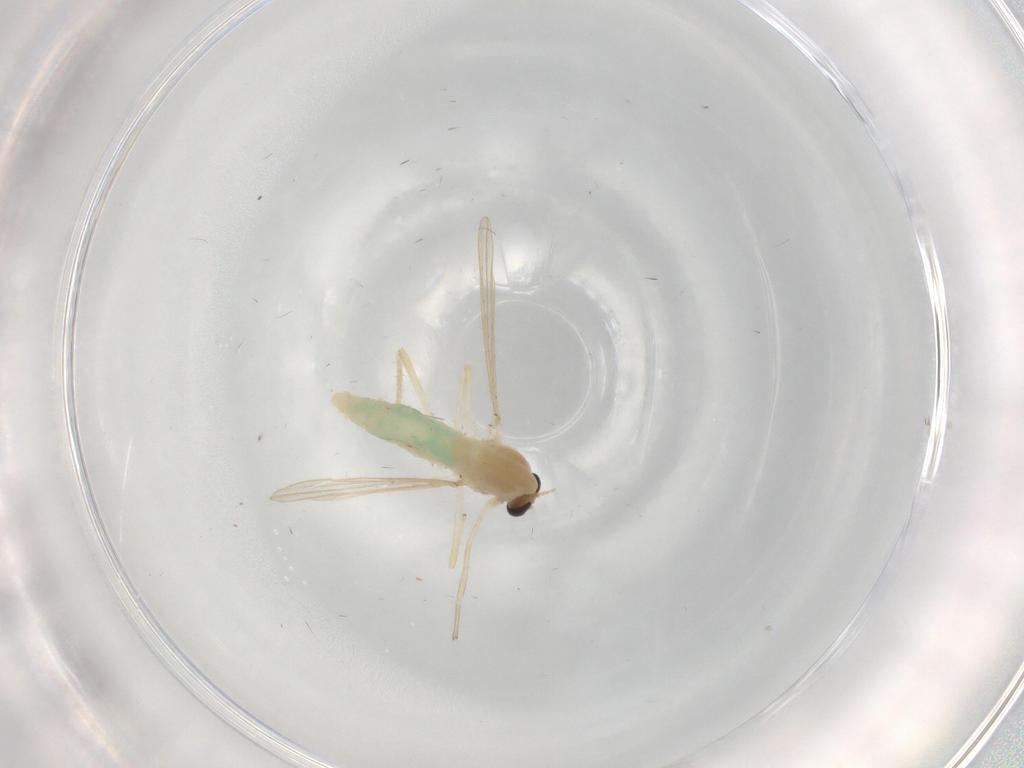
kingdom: Animalia
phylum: Arthropoda
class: Insecta
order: Diptera
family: Chironomidae
